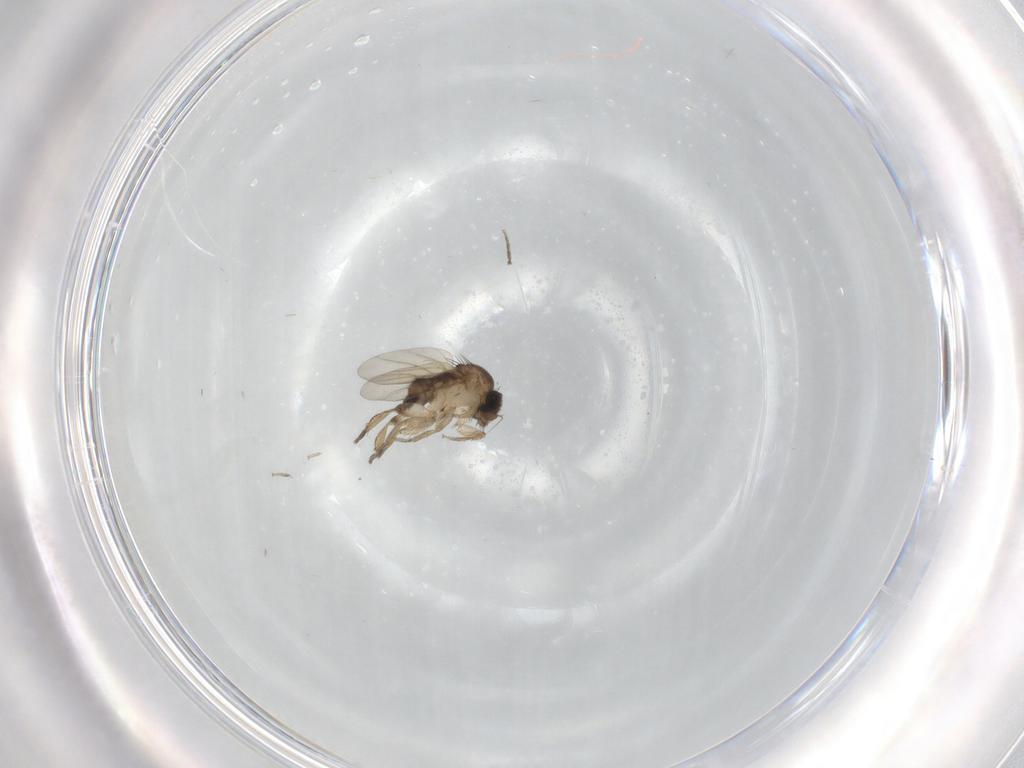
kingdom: Animalia
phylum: Arthropoda
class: Insecta
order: Diptera
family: Phoridae
